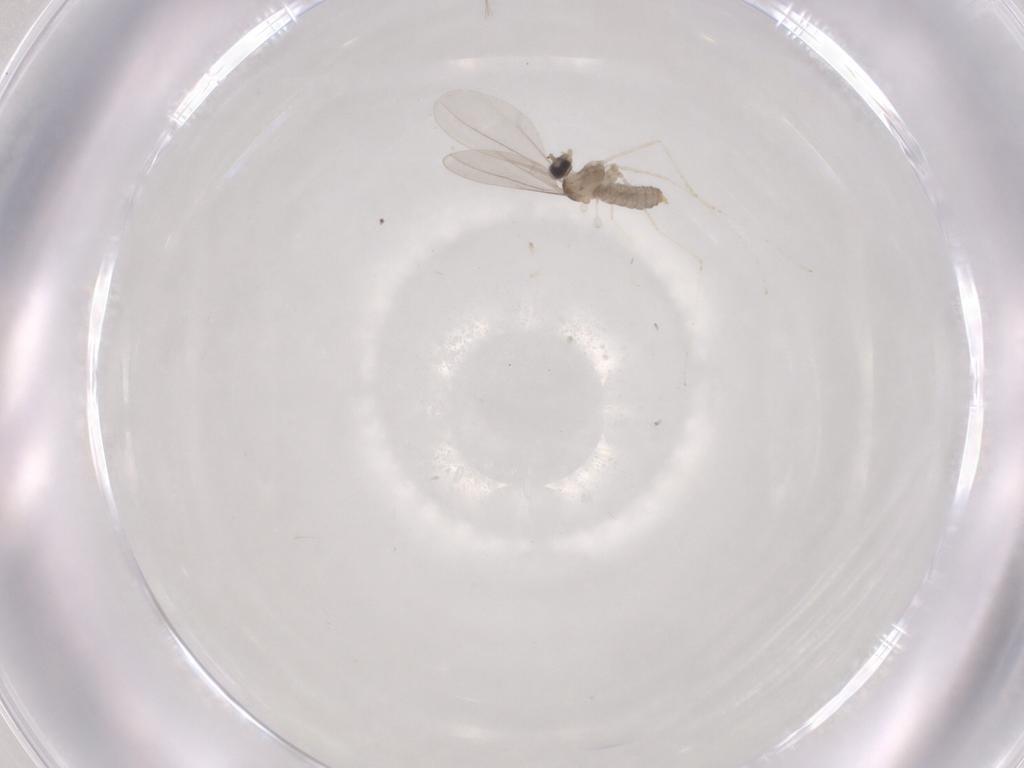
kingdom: Animalia
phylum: Arthropoda
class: Insecta
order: Diptera
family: Cecidomyiidae
